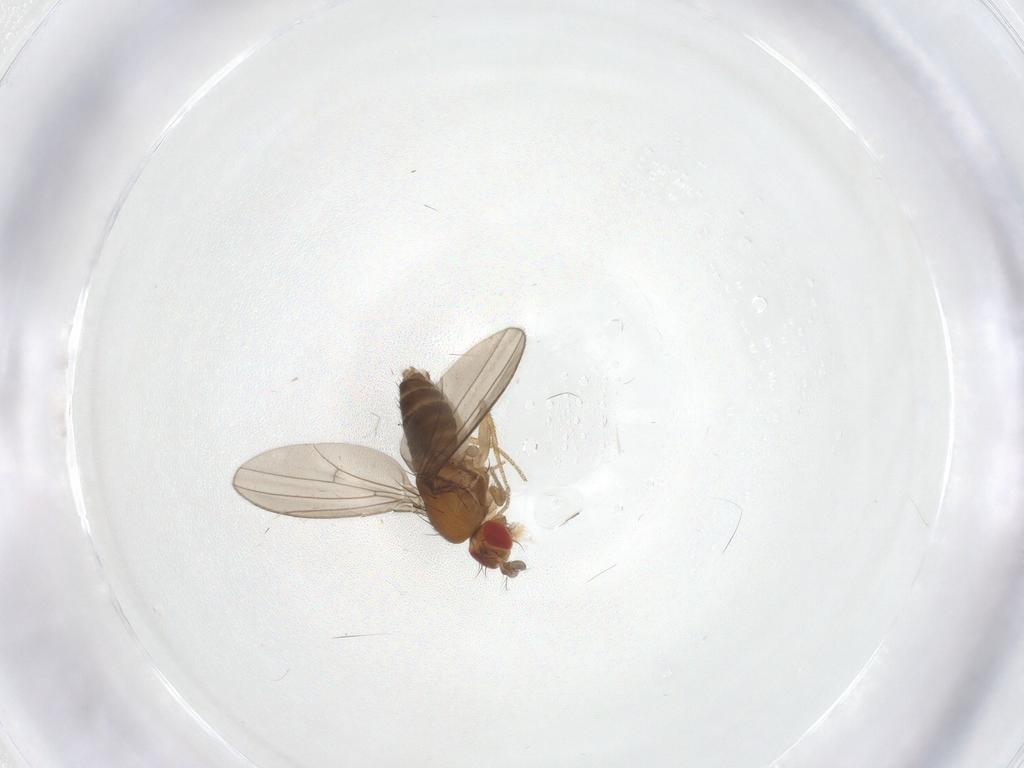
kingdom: Animalia
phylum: Arthropoda
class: Insecta
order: Diptera
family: Drosophilidae
